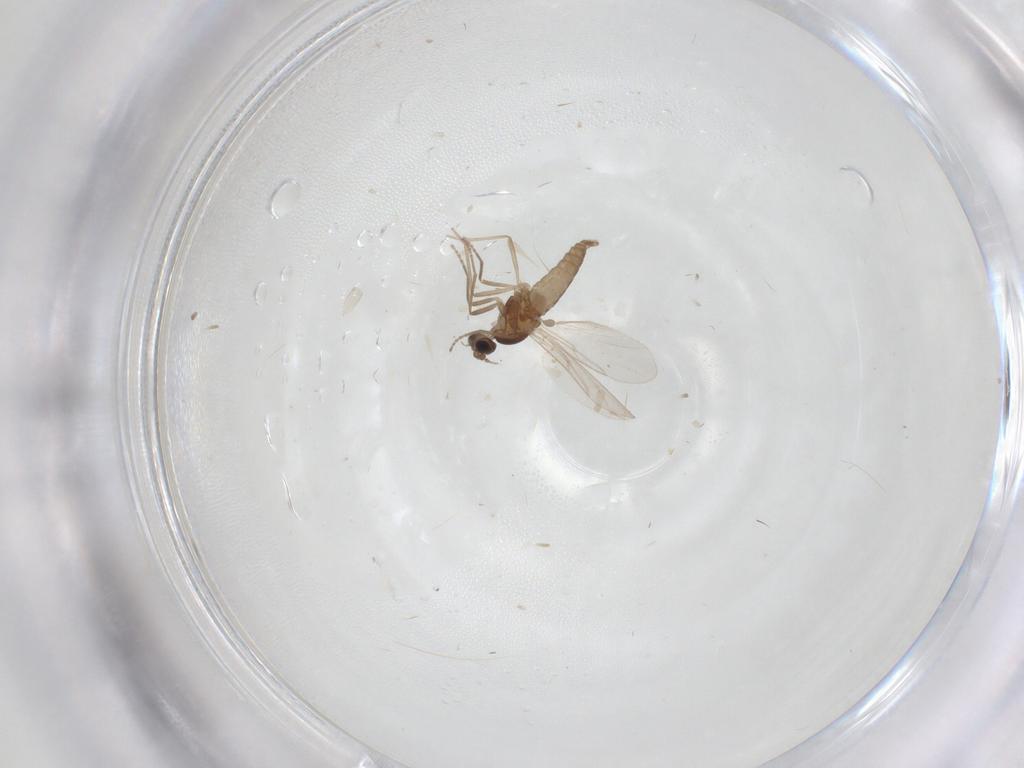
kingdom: Animalia
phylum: Arthropoda
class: Insecta
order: Diptera
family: Cecidomyiidae
